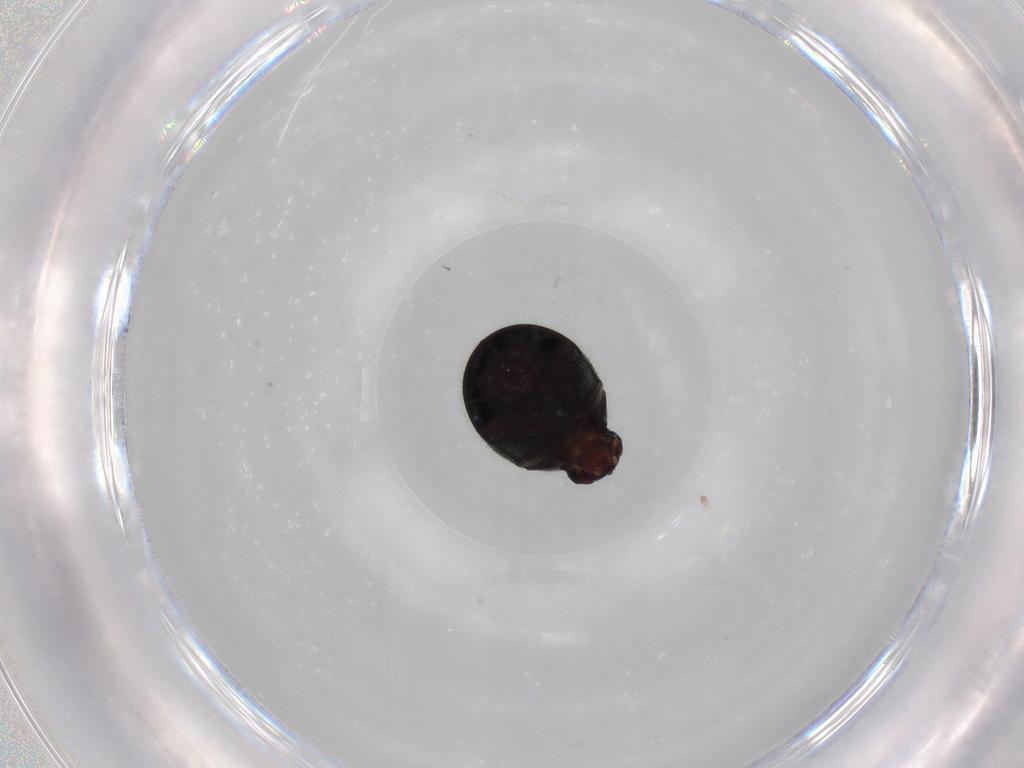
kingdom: Animalia
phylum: Arthropoda
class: Insecta
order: Coleoptera
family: Ptinidae
